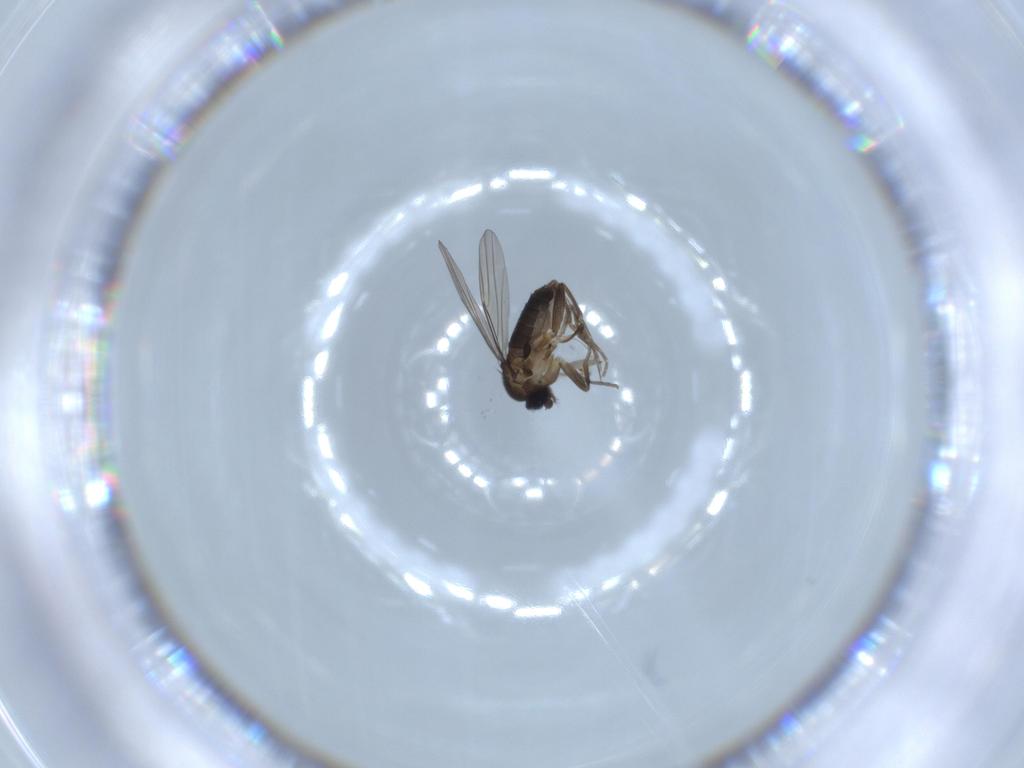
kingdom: Animalia
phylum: Arthropoda
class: Insecta
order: Diptera
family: Phoridae
